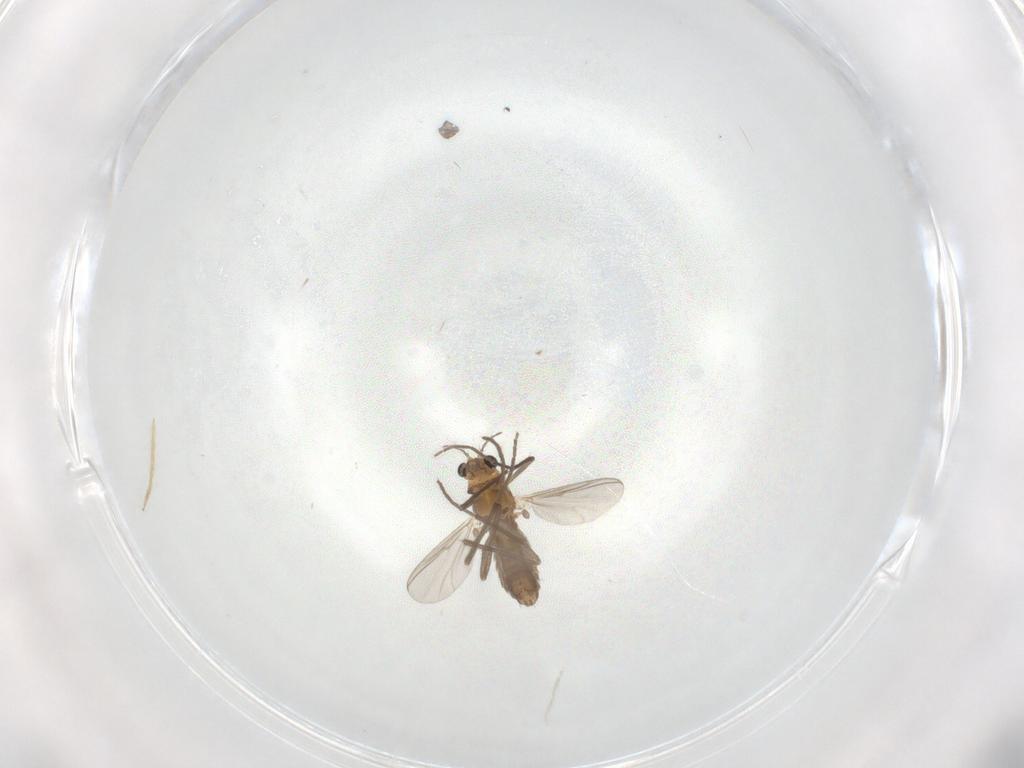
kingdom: Animalia
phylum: Arthropoda
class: Insecta
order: Diptera
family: Chironomidae
